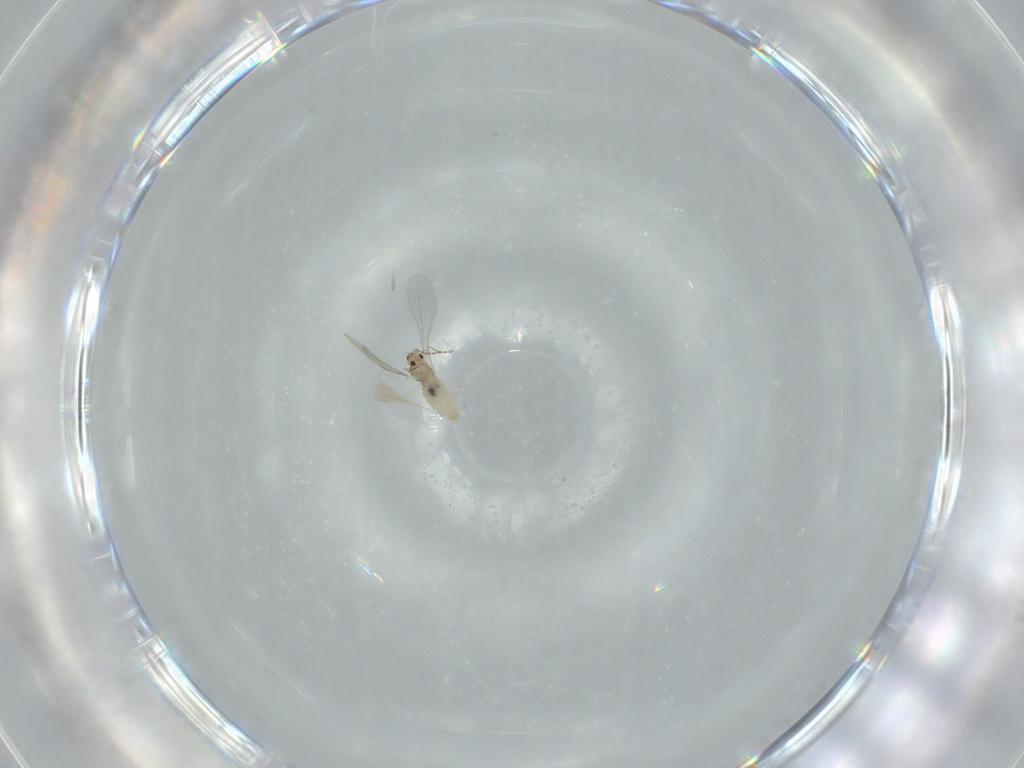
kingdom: Animalia
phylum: Arthropoda
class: Insecta
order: Diptera
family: Cecidomyiidae
